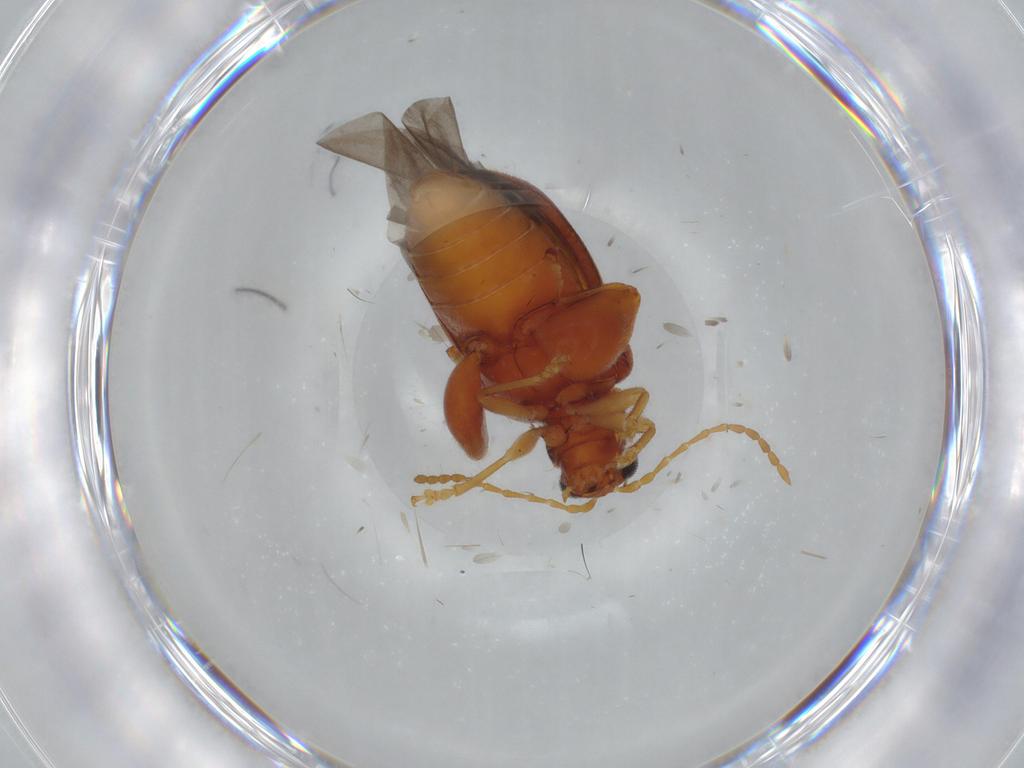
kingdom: Animalia
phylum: Arthropoda
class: Insecta
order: Coleoptera
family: Chrysomelidae
